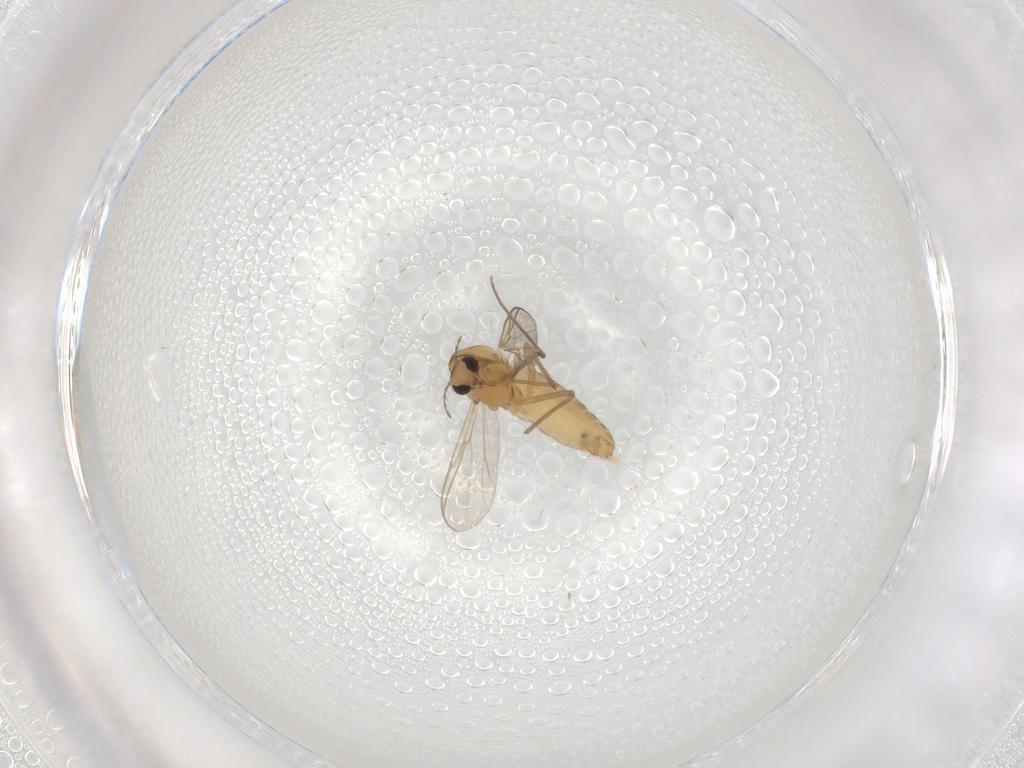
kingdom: Animalia
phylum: Arthropoda
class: Insecta
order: Diptera
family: Chironomidae
